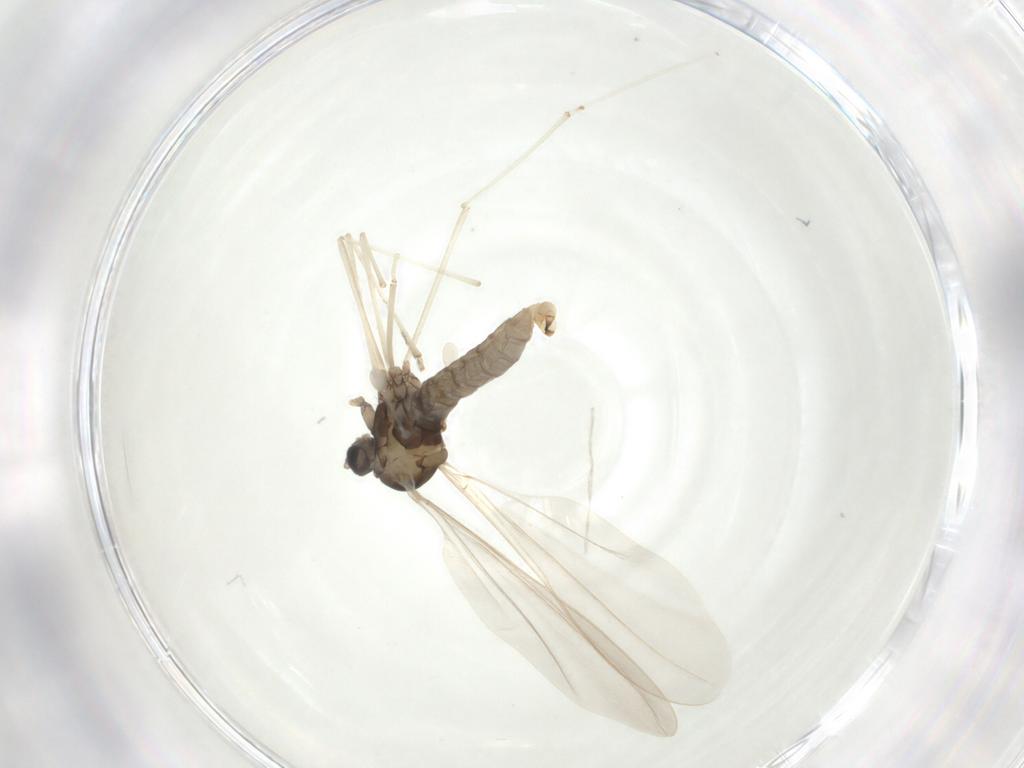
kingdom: Animalia
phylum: Arthropoda
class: Insecta
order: Diptera
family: Cecidomyiidae
